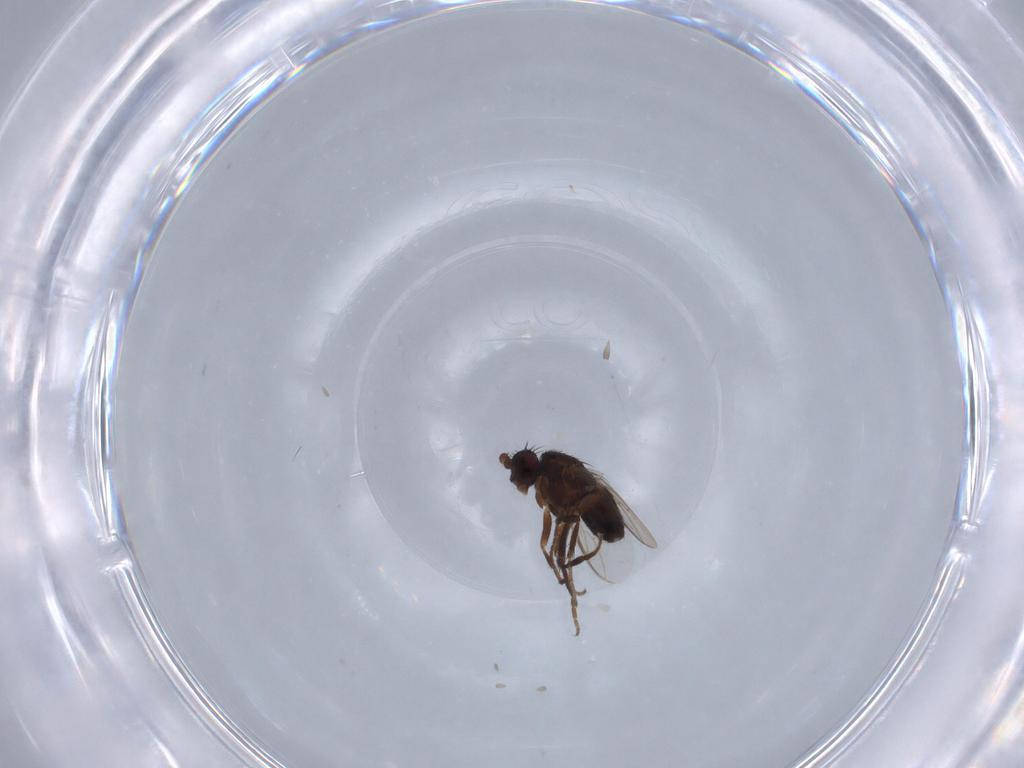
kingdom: Animalia
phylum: Arthropoda
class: Insecta
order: Diptera
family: Sphaeroceridae
